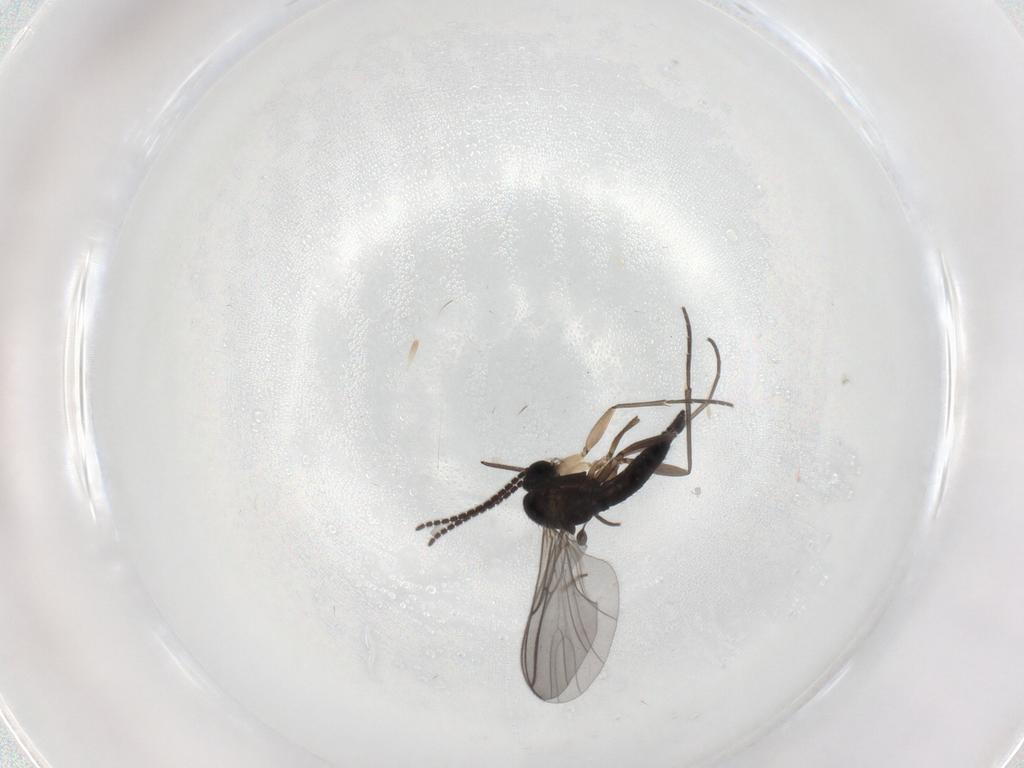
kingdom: Animalia
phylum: Arthropoda
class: Insecta
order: Diptera
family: Sciaridae
